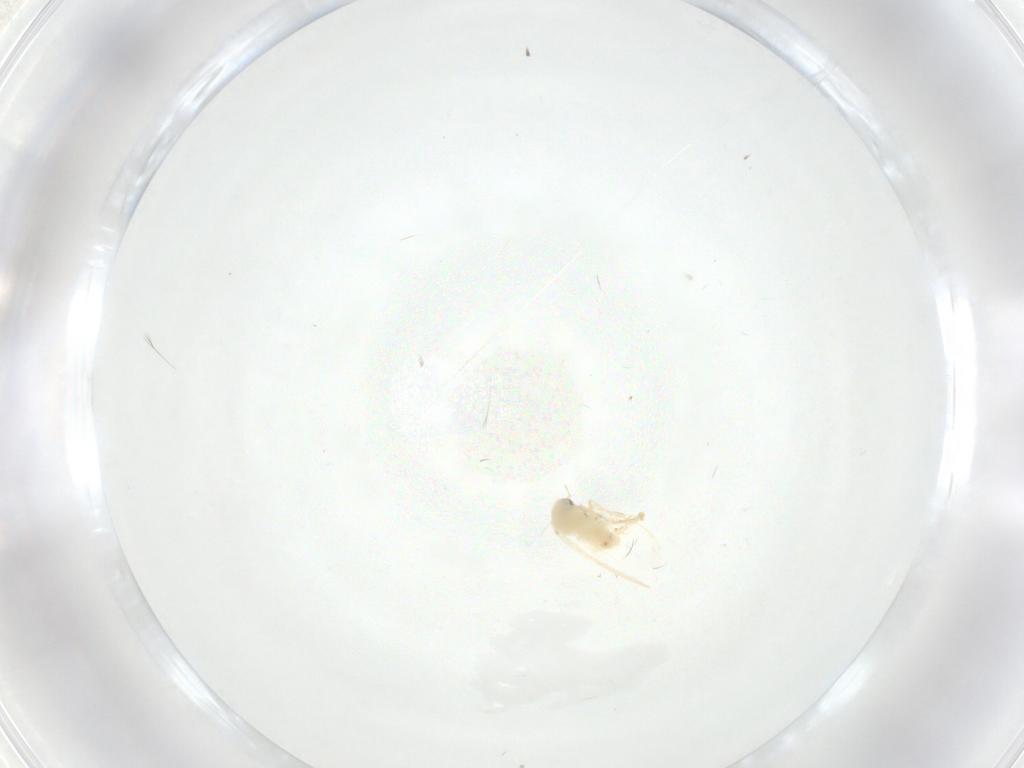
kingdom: Animalia
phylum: Arthropoda
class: Insecta
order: Hemiptera
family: Aleyrodidae
